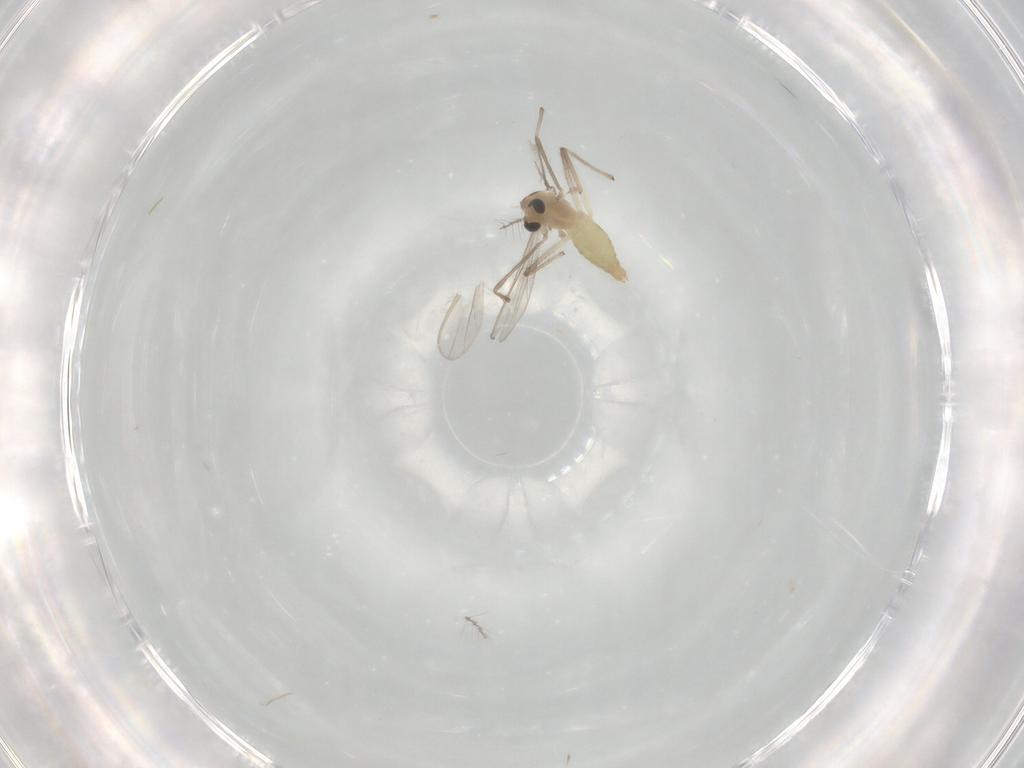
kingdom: Animalia
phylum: Arthropoda
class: Insecta
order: Diptera
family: Chironomidae
